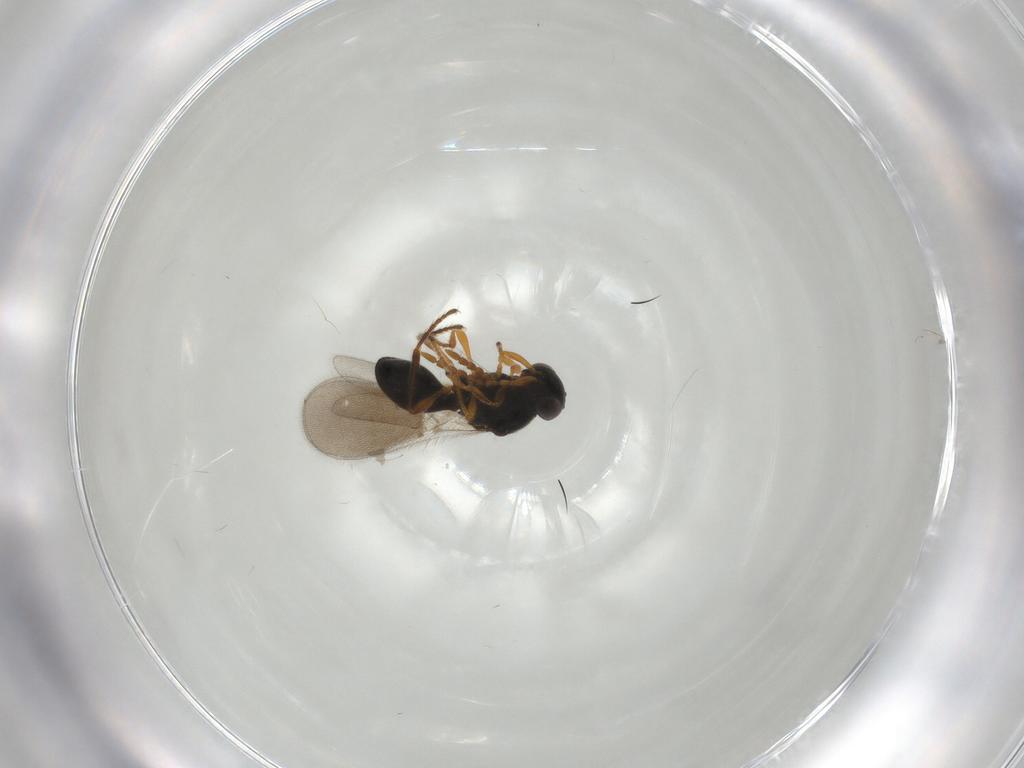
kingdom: Animalia
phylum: Arthropoda
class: Insecta
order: Hymenoptera
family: Platygastridae
